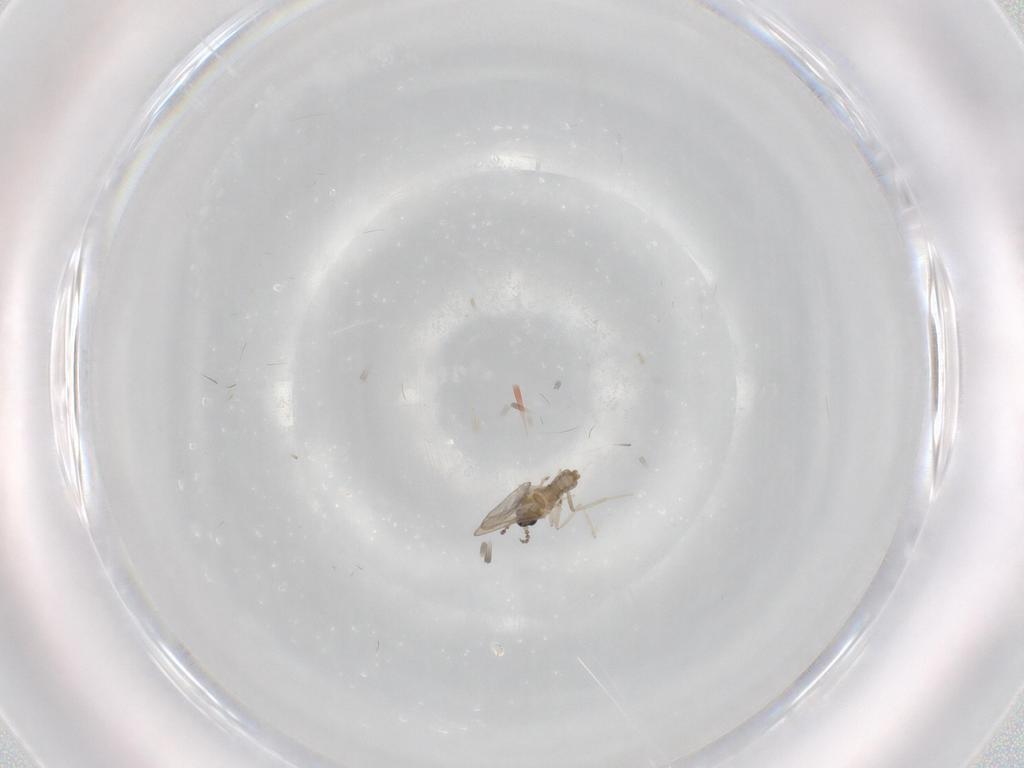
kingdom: Animalia
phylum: Arthropoda
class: Insecta
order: Diptera
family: Cecidomyiidae
